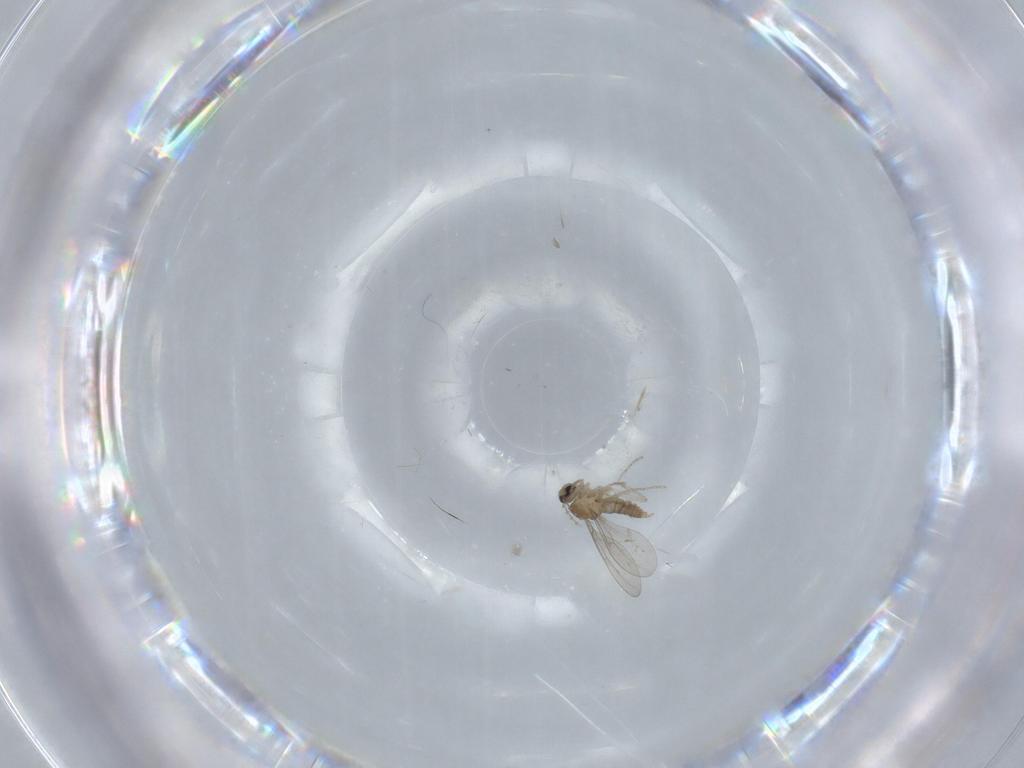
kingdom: Animalia
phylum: Arthropoda
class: Insecta
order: Diptera
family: Cecidomyiidae
